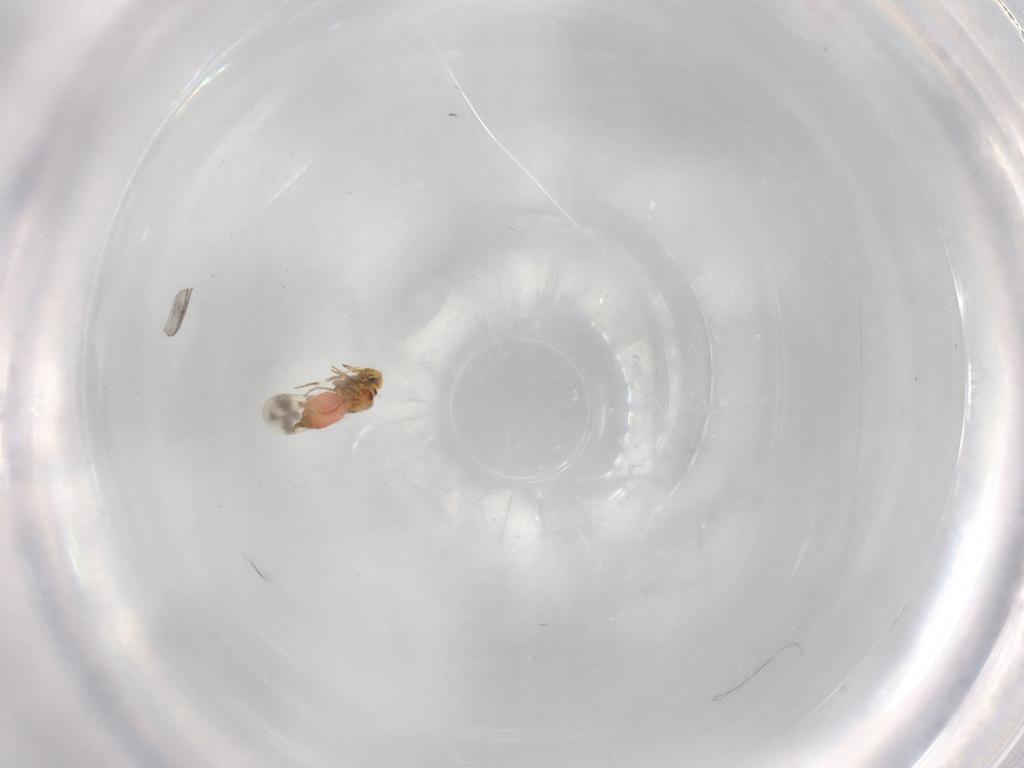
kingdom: Animalia
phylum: Arthropoda
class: Insecta
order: Hemiptera
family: Aleyrodidae
